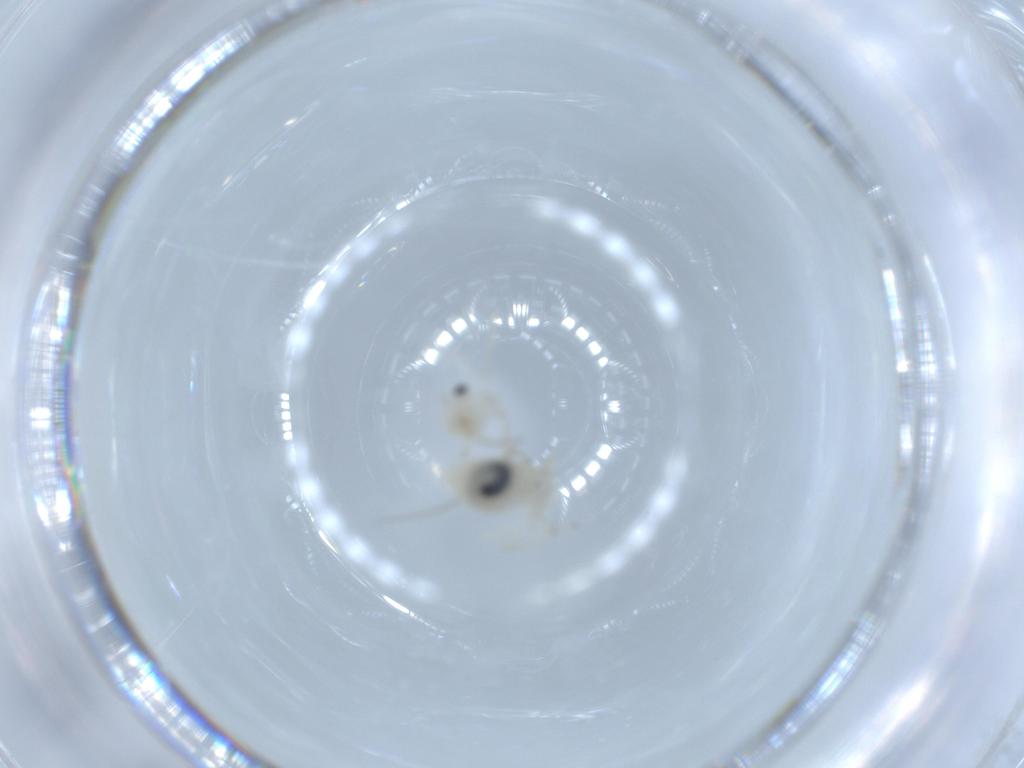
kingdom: Animalia
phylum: Arthropoda
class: Insecta
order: Psocodea
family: Caeciliusidae
